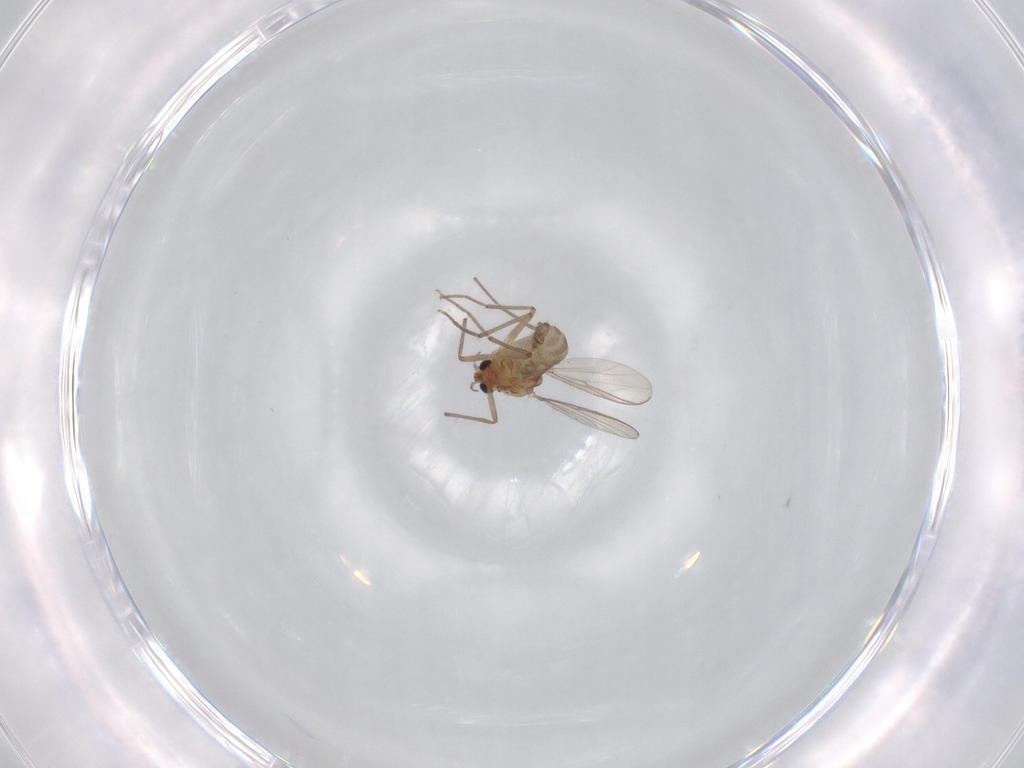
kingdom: Animalia
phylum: Arthropoda
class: Insecta
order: Diptera
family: Chironomidae
